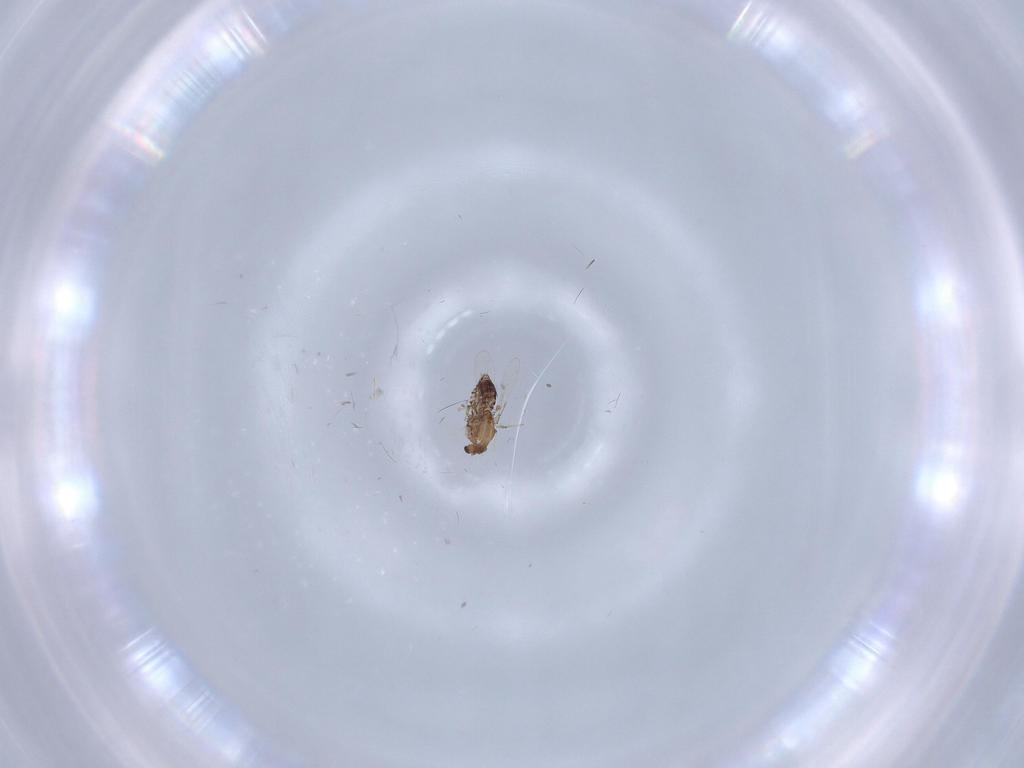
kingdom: Animalia
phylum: Arthropoda
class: Insecta
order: Diptera
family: Chironomidae
